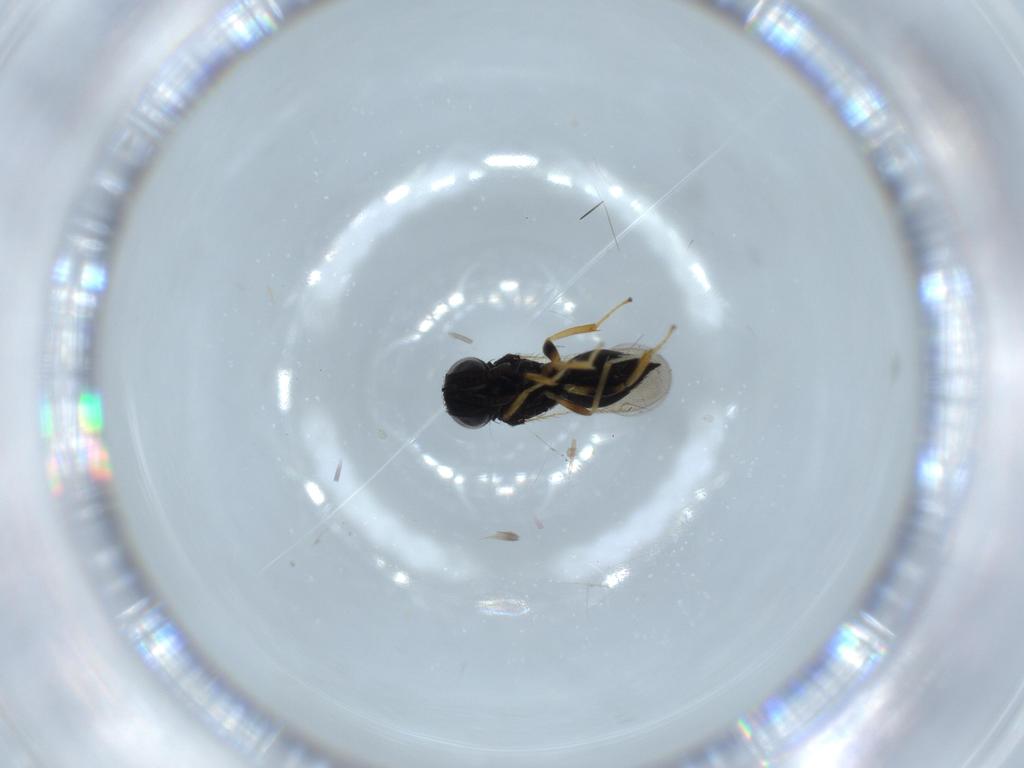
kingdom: Animalia
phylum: Arthropoda
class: Insecta
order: Hymenoptera
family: Pteromalidae
